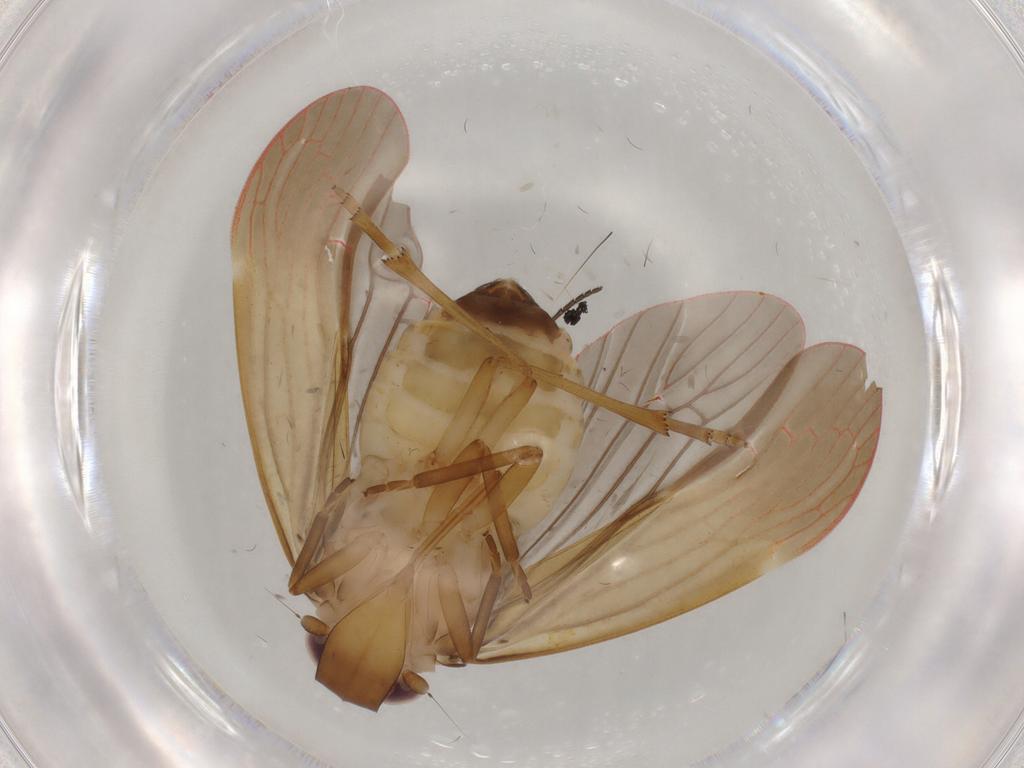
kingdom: Animalia
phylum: Arthropoda
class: Insecta
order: Hemiptera
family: Achilidae
